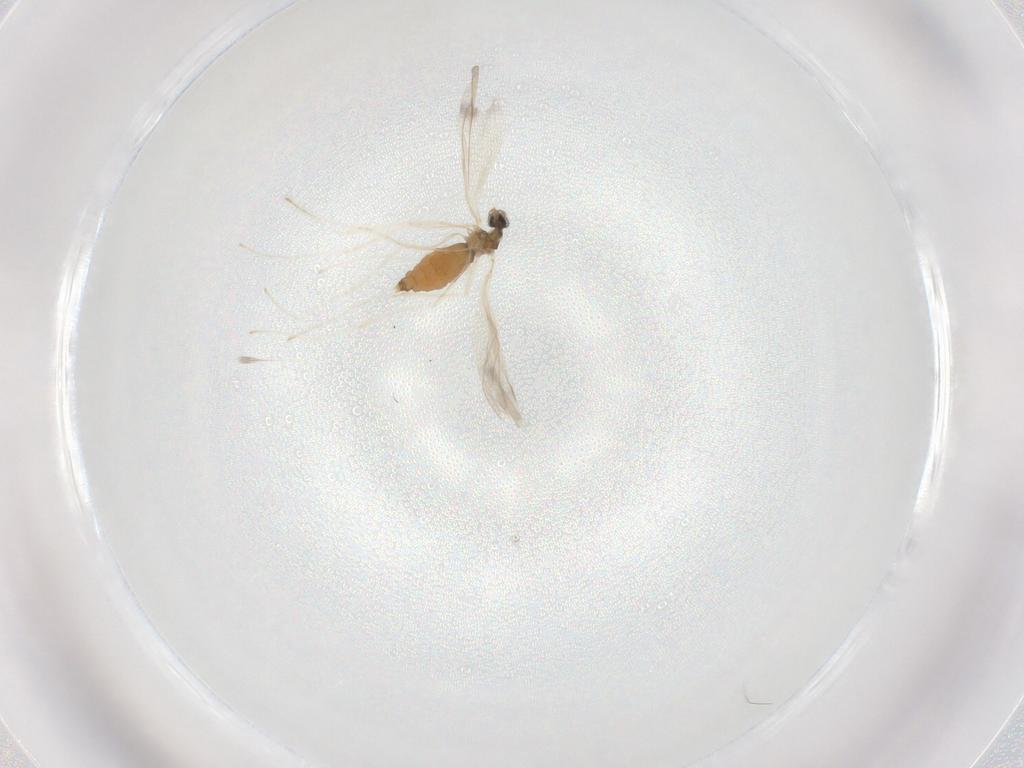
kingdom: Animalia
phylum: Arthropoda
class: Insecta
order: Diptera
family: Cecidomyiidae
